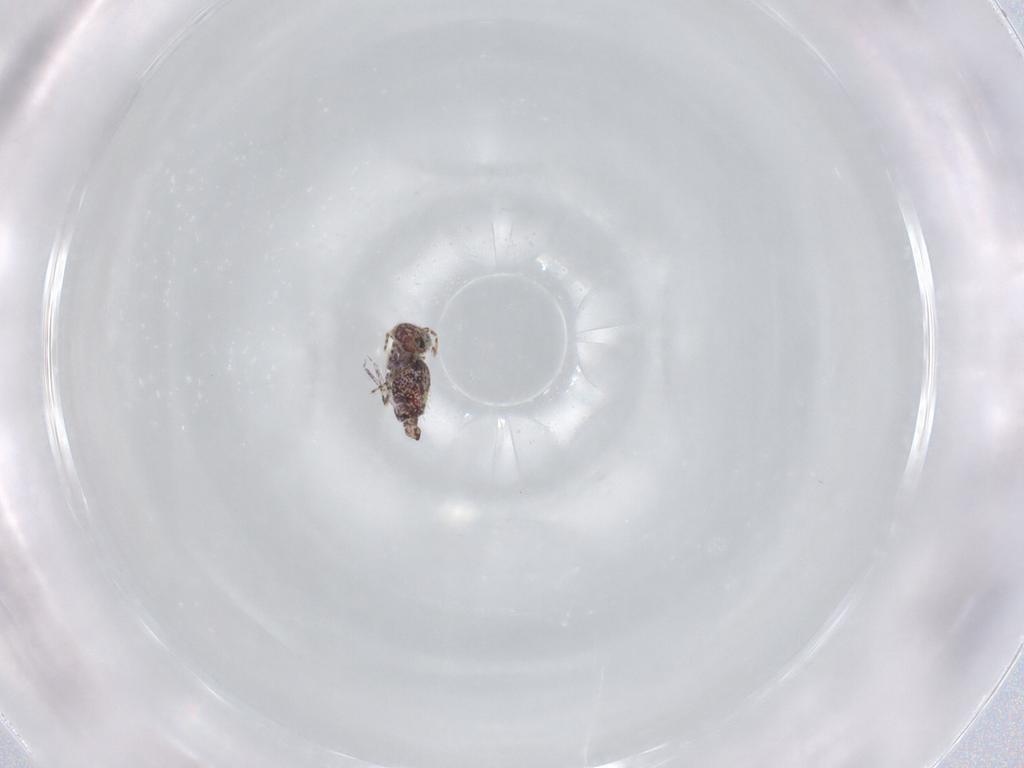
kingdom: Animalia
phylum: Arthropoda
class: Collembola
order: Symphypleona
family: Bourletiellidae
